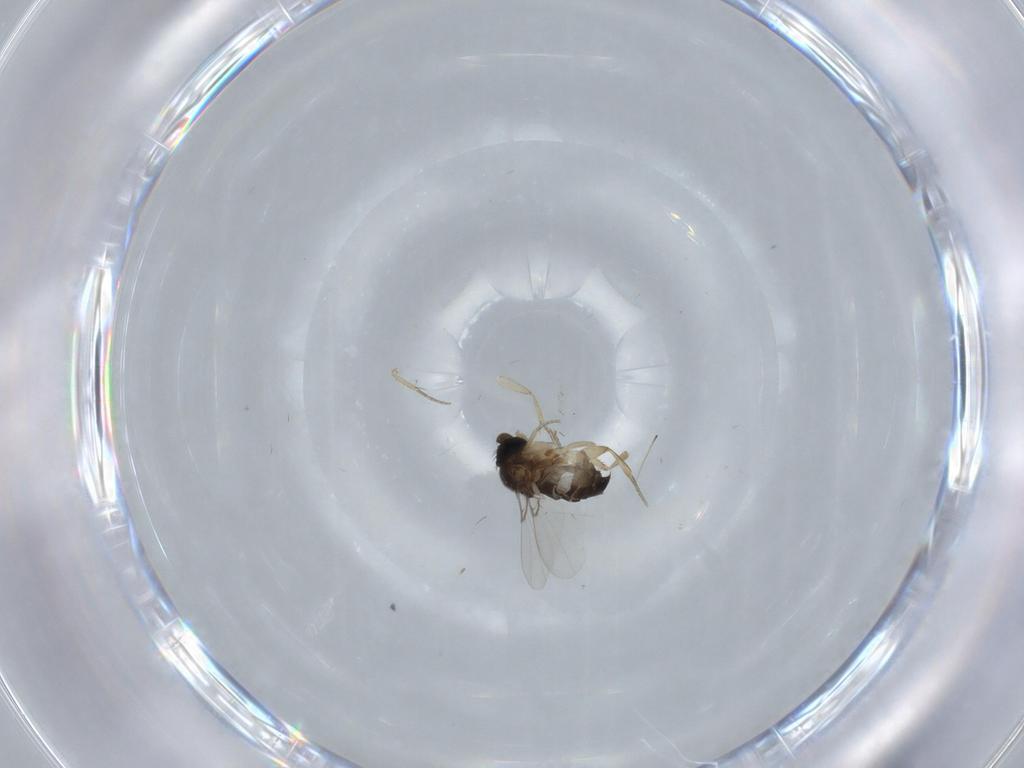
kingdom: Animalia
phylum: Arthropoda
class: Insecta
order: Diptera
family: Phoridae
